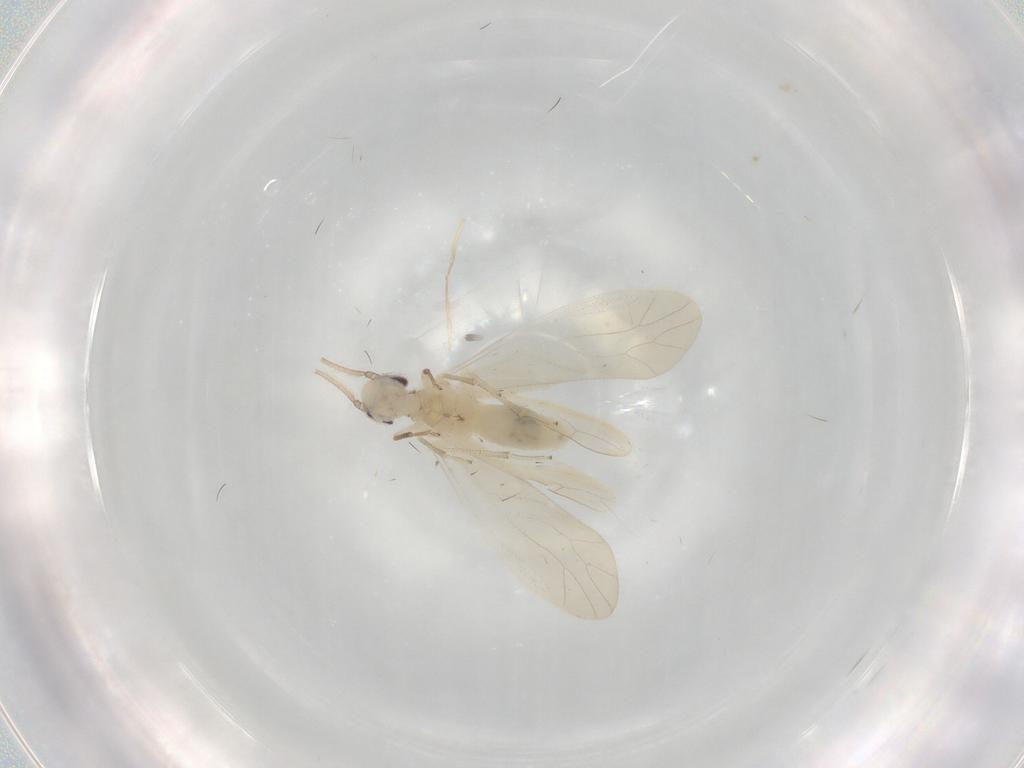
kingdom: Animalia
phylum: Arthropoda
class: Insecta
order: Psocodea
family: Caeciliusidae
